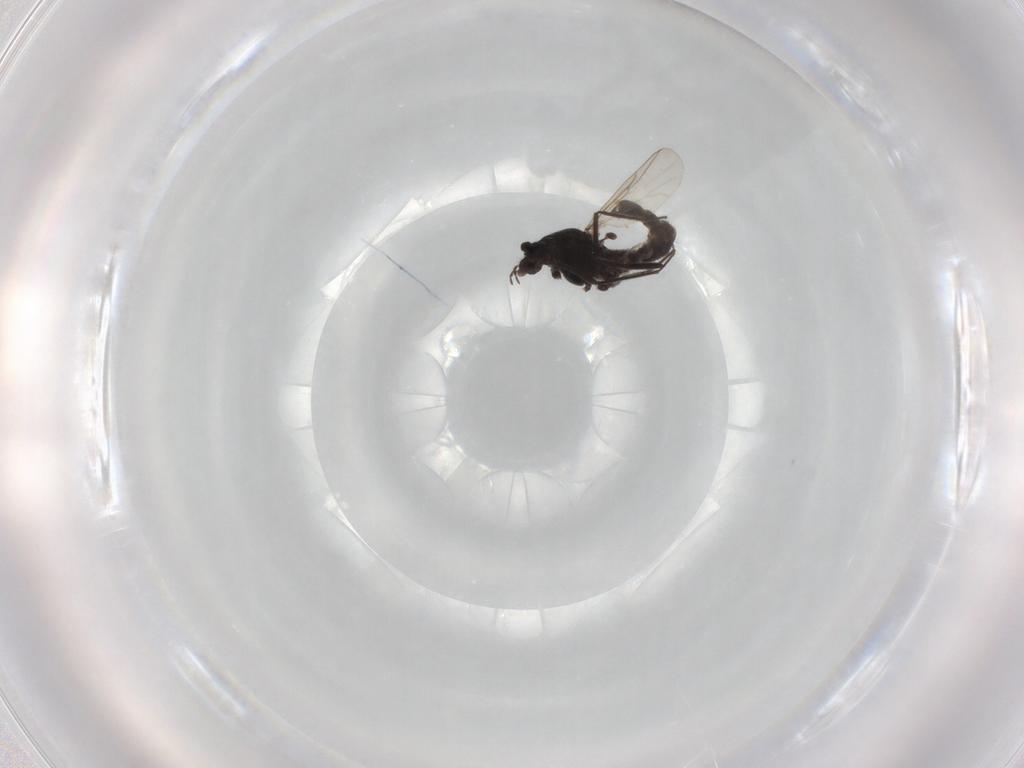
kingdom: Animalia
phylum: Arthropoda
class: Insecta
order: Diptera
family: Chironomidae
